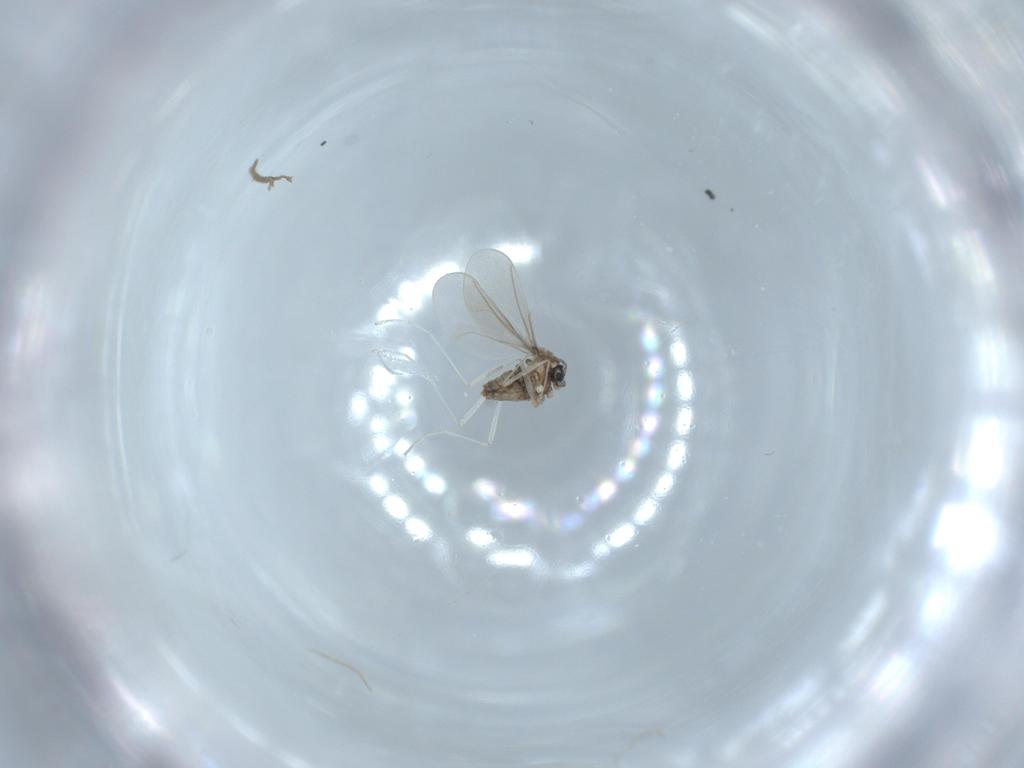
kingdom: Animalia
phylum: Arthropoda
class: Insecta
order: Diptera
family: Cecidomyiidae
